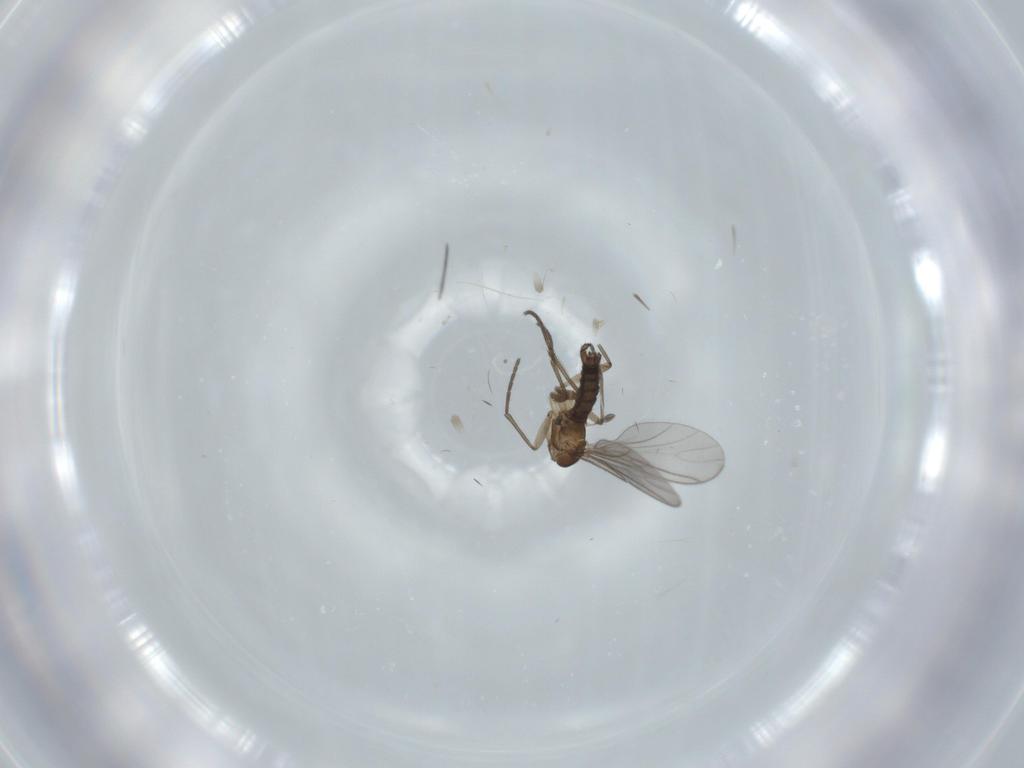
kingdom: Animalia
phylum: Arthropoda
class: Insecta
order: Diptera
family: Sciaridae
